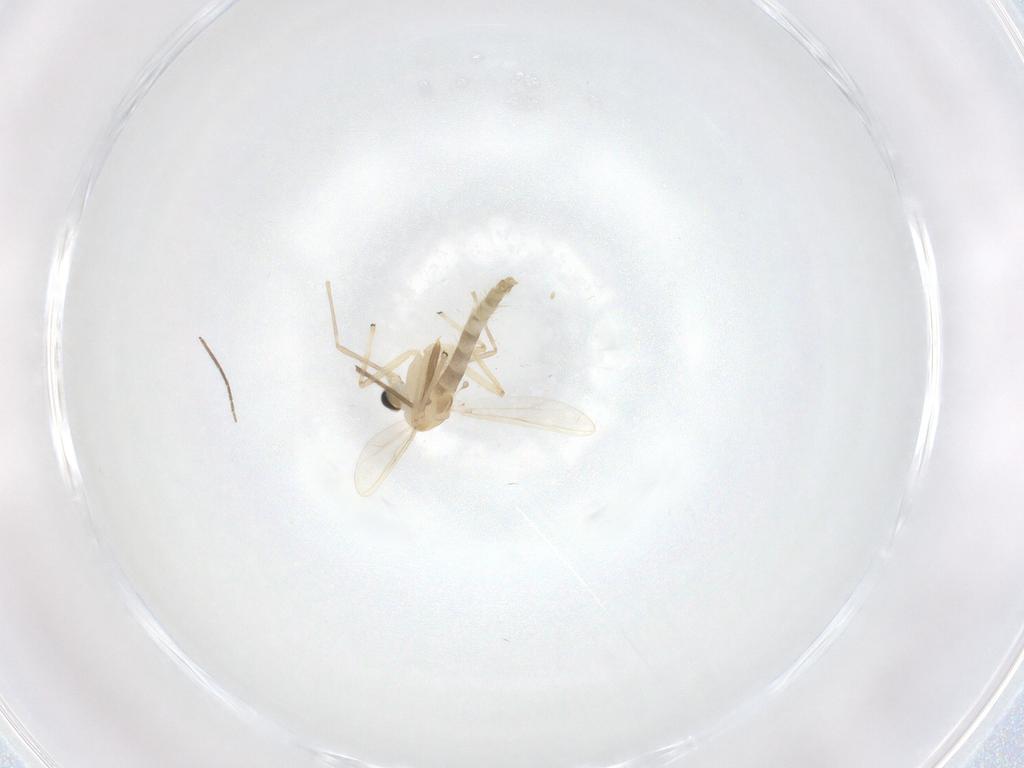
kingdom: Animalia
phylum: Arthropoda
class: Insecta
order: Diptera
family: Chironomidae
